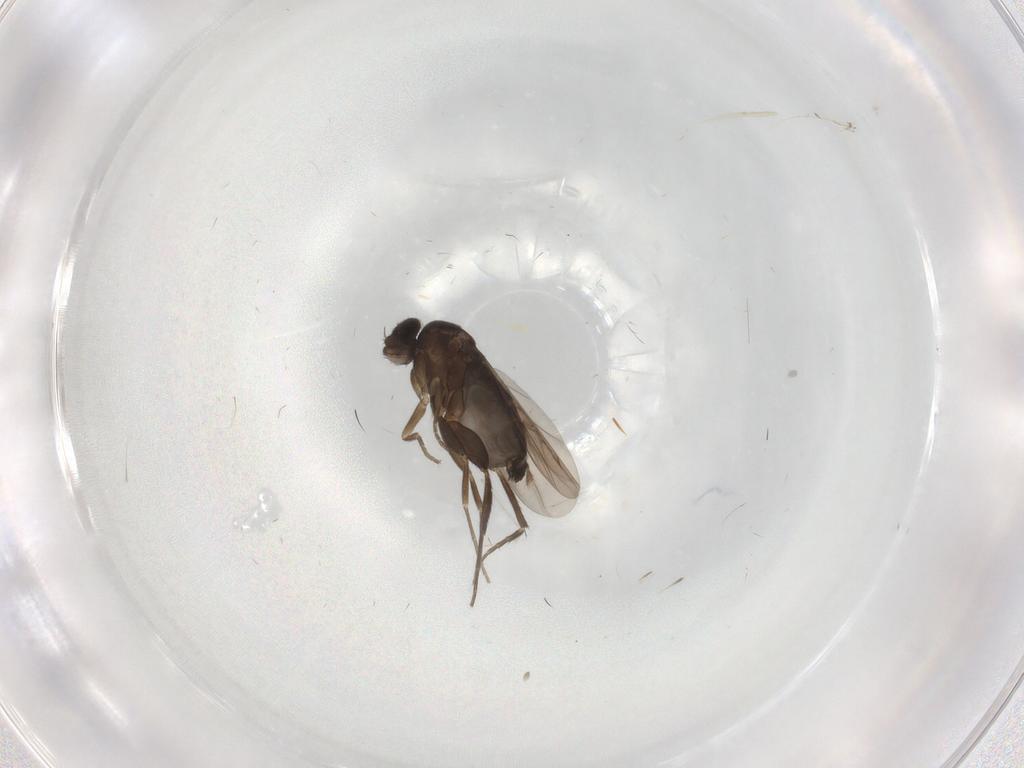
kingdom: Animalia
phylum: Arthropoda
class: Insecta
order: Diptera
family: Phoridae
